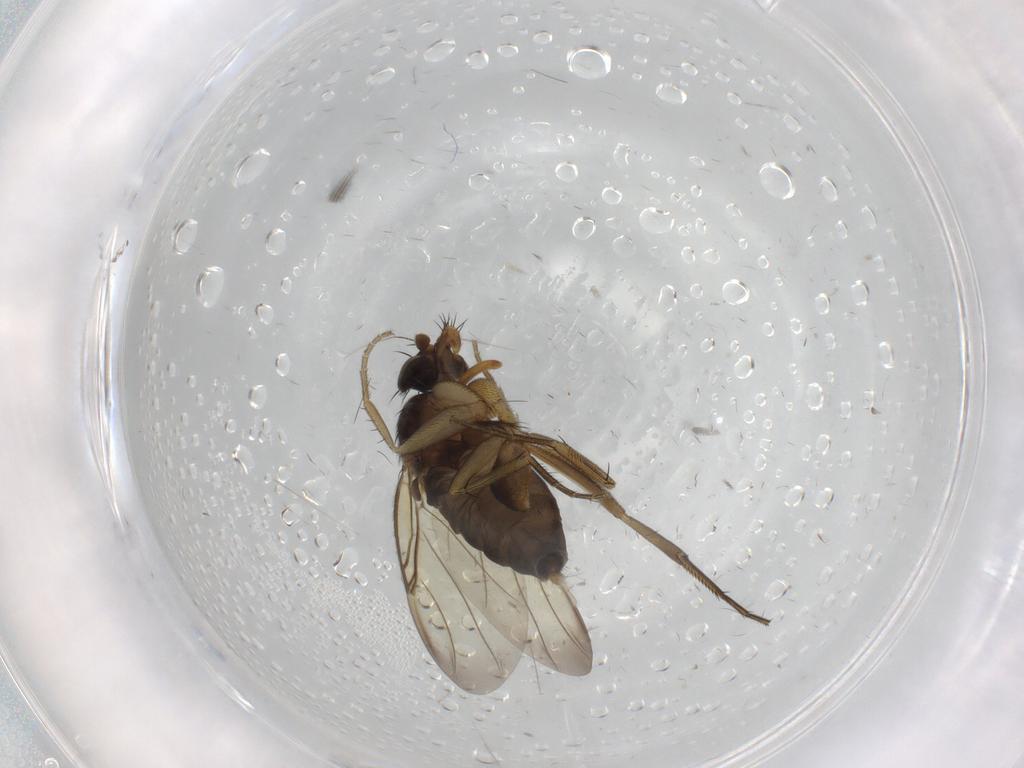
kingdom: Animalia
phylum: Arthropoda
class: Insecta
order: Diptera
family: Phoridae
